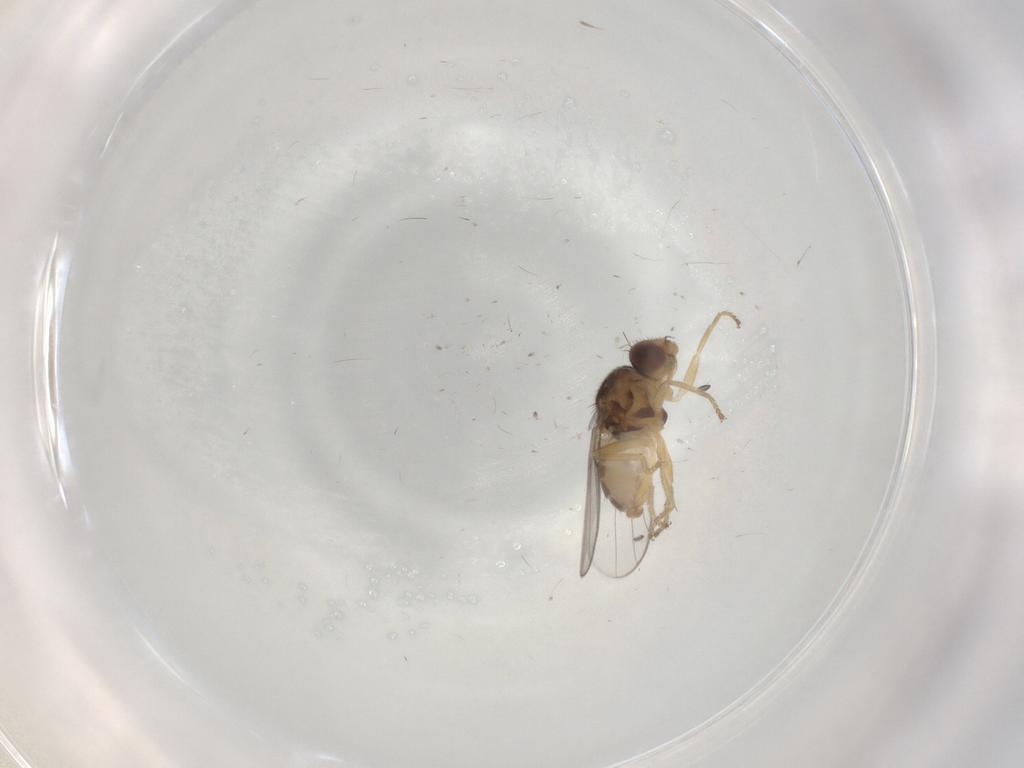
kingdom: Animalia
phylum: Arthropoda
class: Insecta
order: Diptera
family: Chloropidae
